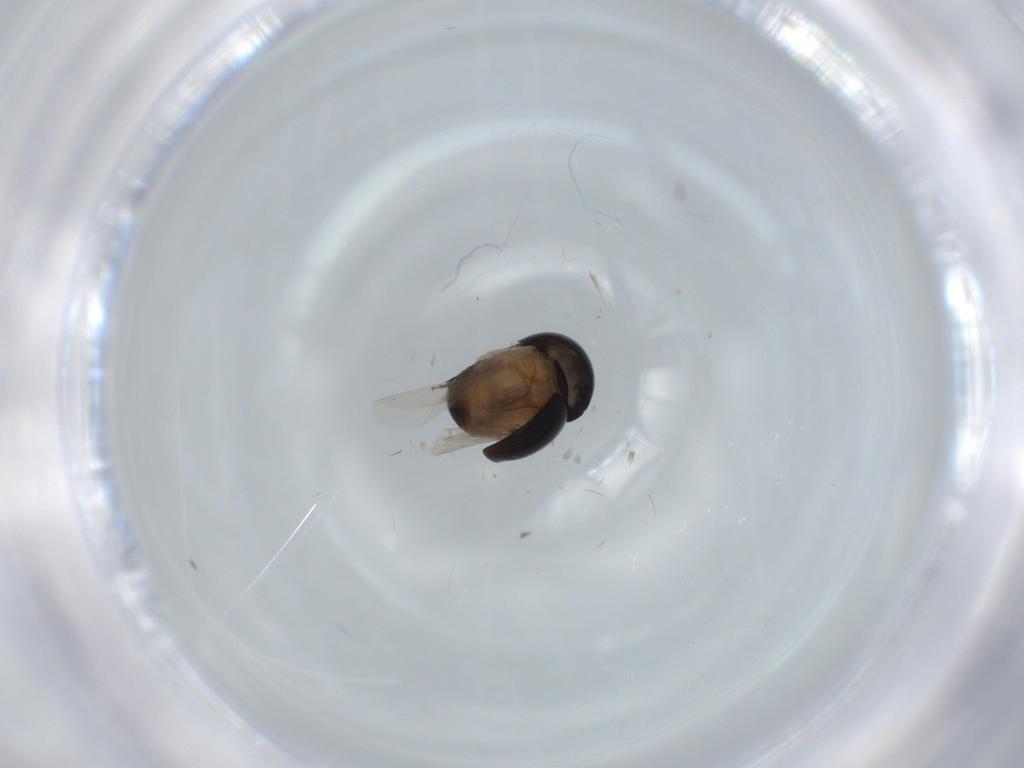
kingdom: Animalia
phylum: Arthropoda
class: Insecta
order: Coleoptera
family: Cybocephalidae
